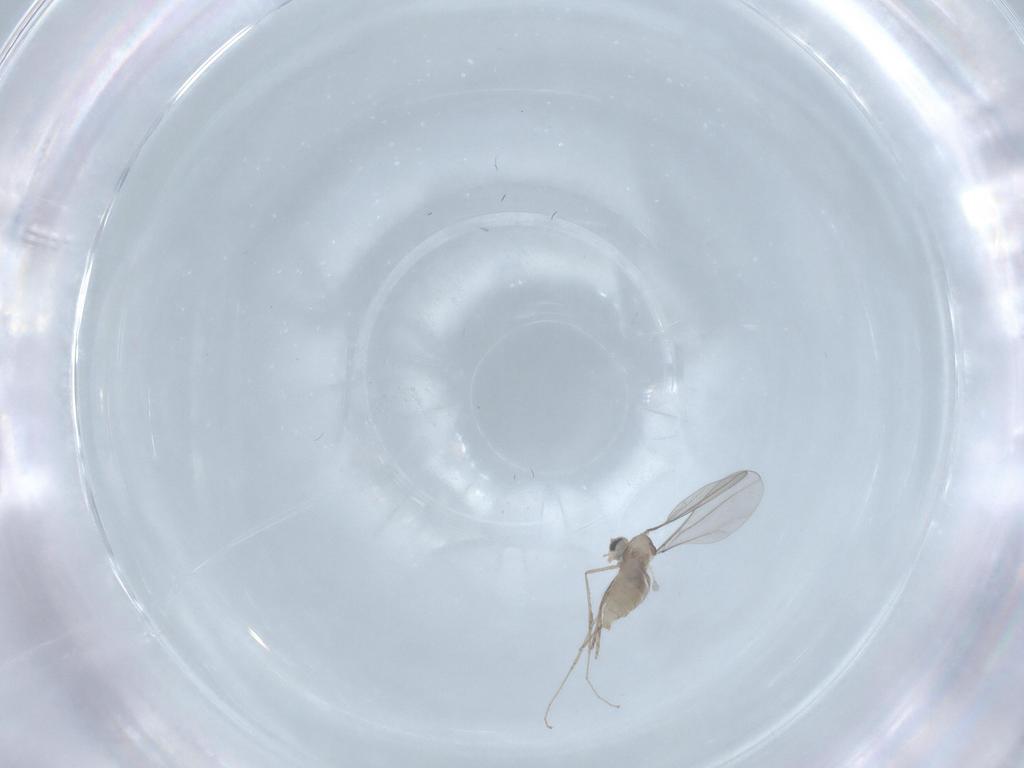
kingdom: Animalia
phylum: Arthropoda
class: Insecta
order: Diptera
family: Cecidomyiidae
